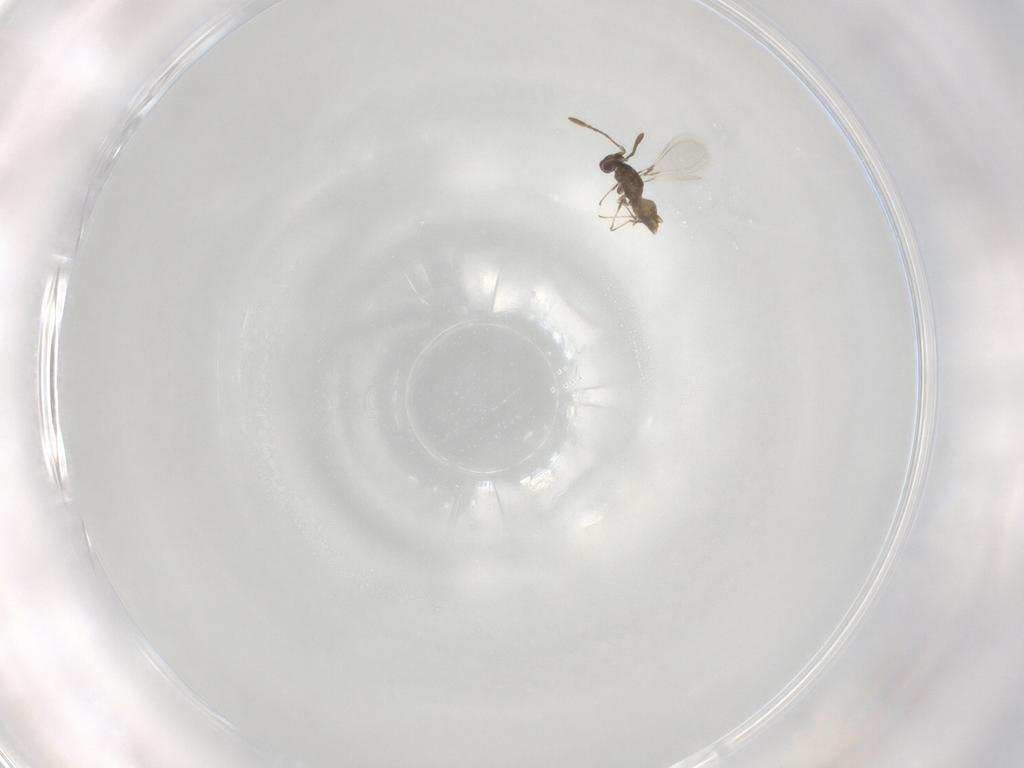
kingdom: Animalia
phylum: Arthropoda
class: Insecta
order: Hymenoptera
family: Mymaridae
